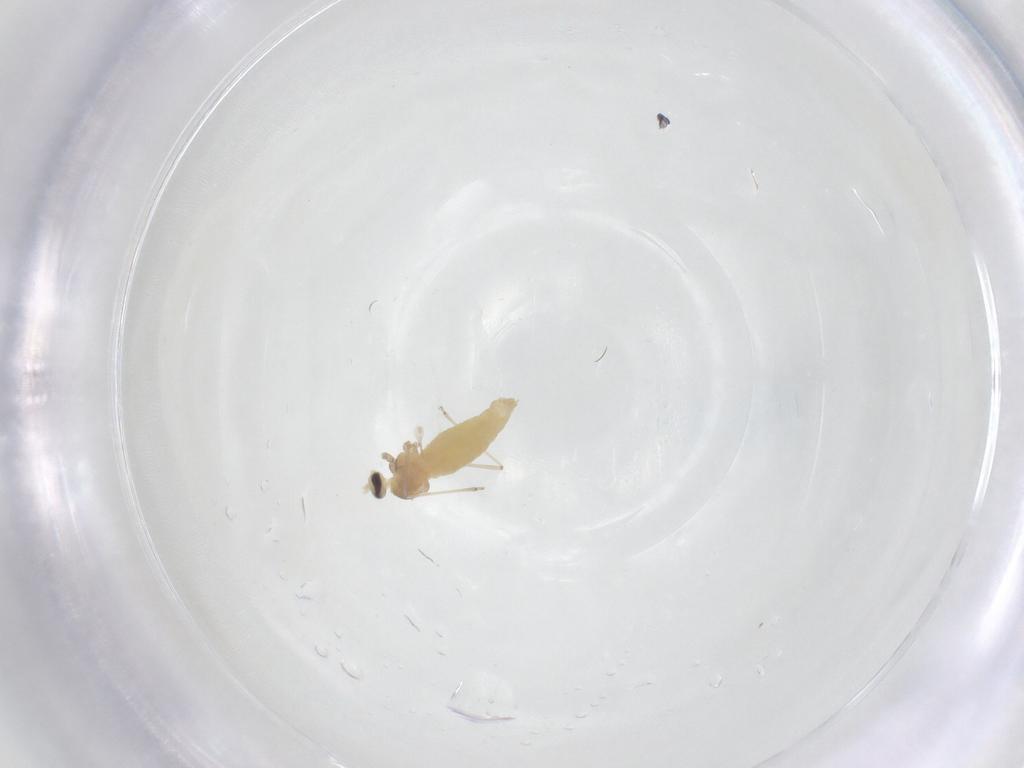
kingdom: Animalia
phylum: Arthropoda
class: Insecta
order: Diptera
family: Cecidomyiidae
